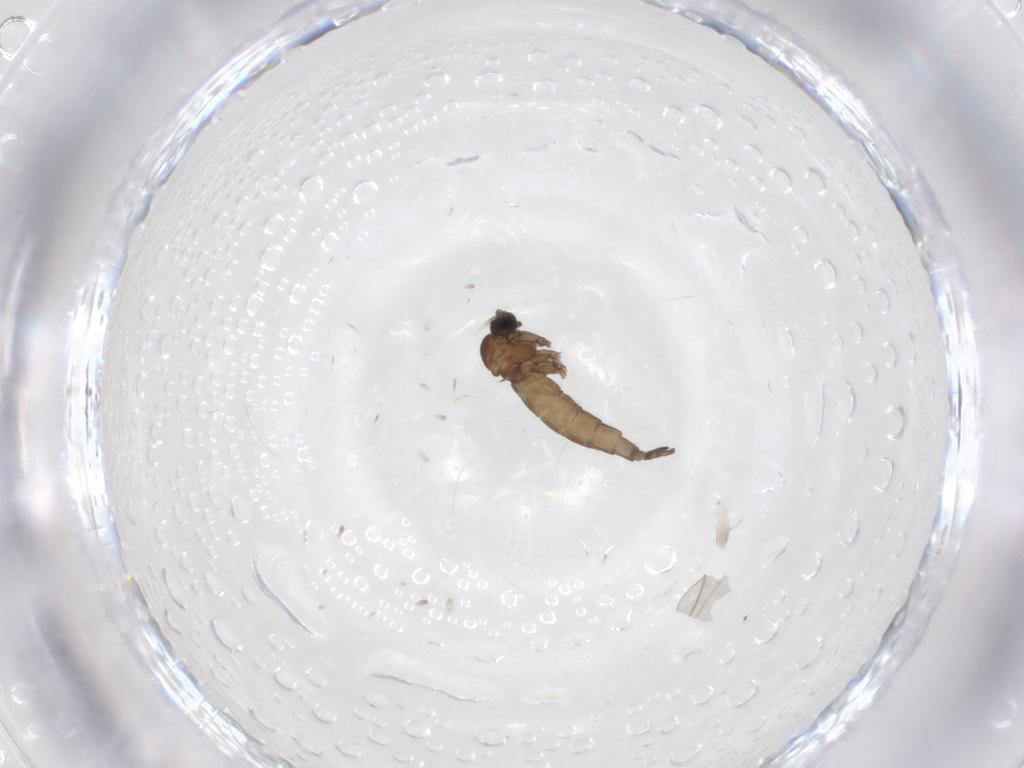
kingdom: Animalia
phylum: Arthropoda
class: Insecta
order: Diptera
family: Sciaridae
